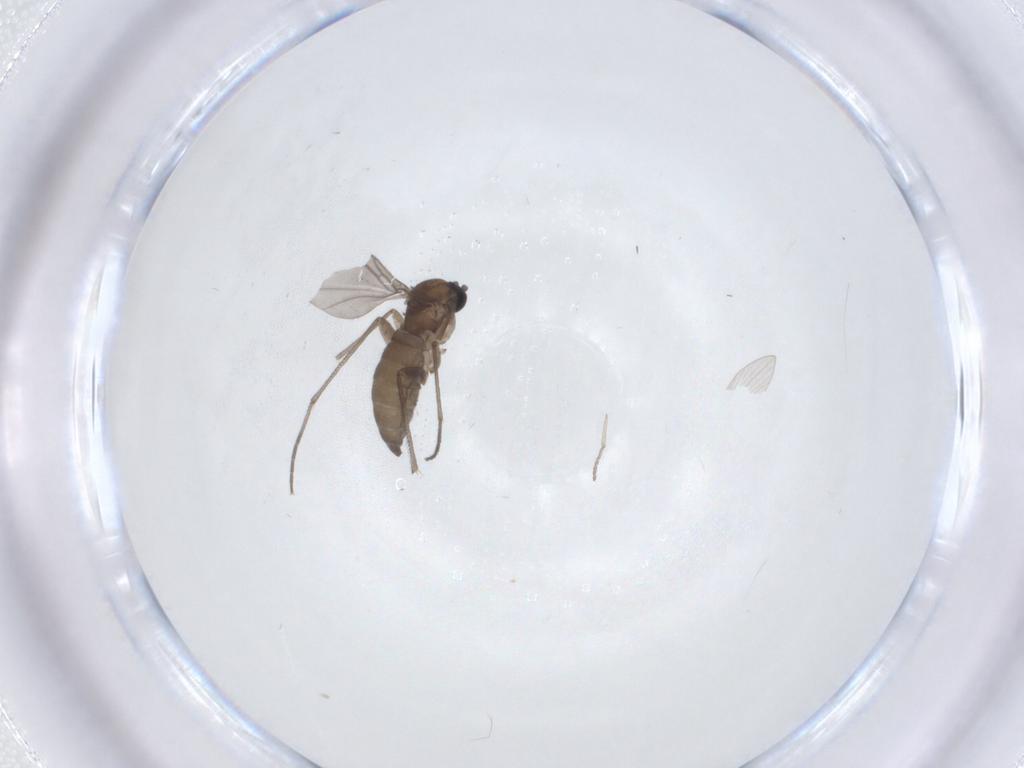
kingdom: Animalia
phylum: Arthropoda
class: Insecta
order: Diptera
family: Sciaridae
